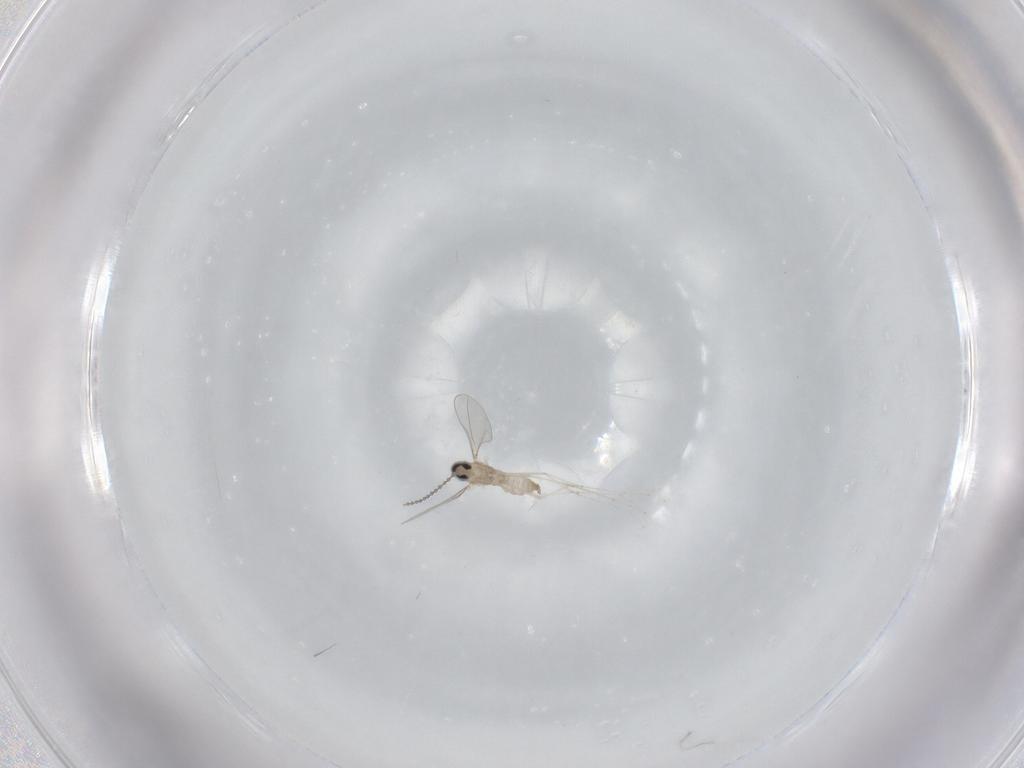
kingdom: Animalia
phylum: Arthropoda
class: Insecta
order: Diptera
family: Cecidomyiidae
